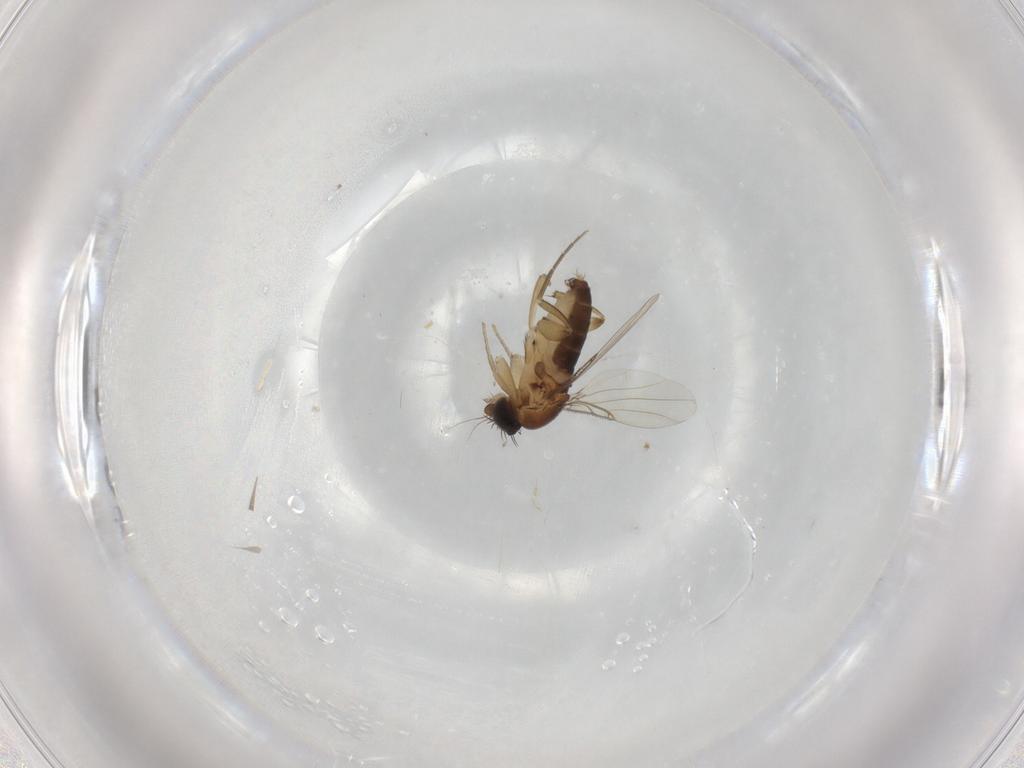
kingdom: Animalia
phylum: Arthropoda
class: Insecta
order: Diptera
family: Phoridae
